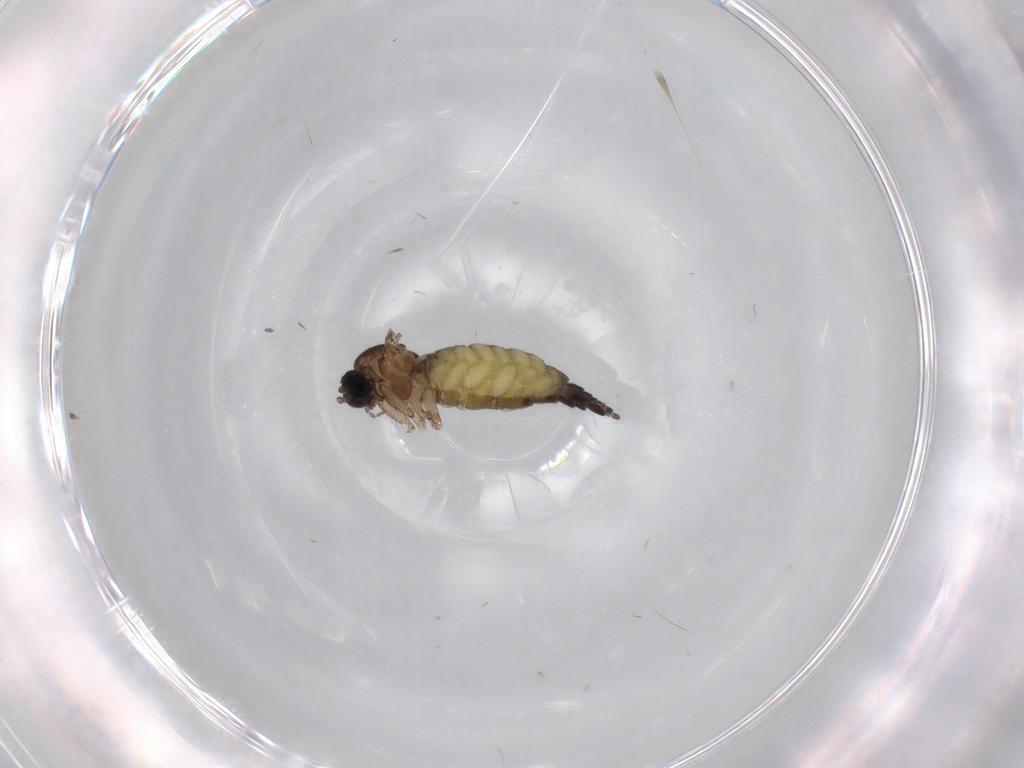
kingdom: Animalia
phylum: Arthropoda
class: Insecta
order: Diptera
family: Sciaridae
